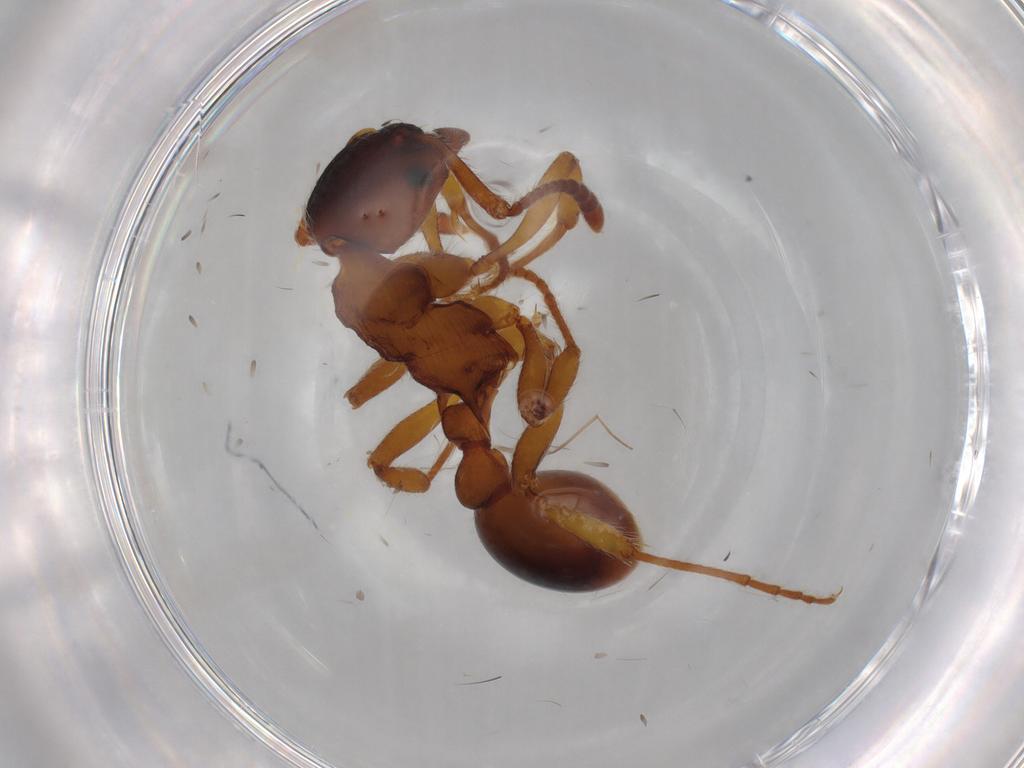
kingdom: Animalia
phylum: Arthropoda
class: Insecta
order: Hymenoptera
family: Formicidae
